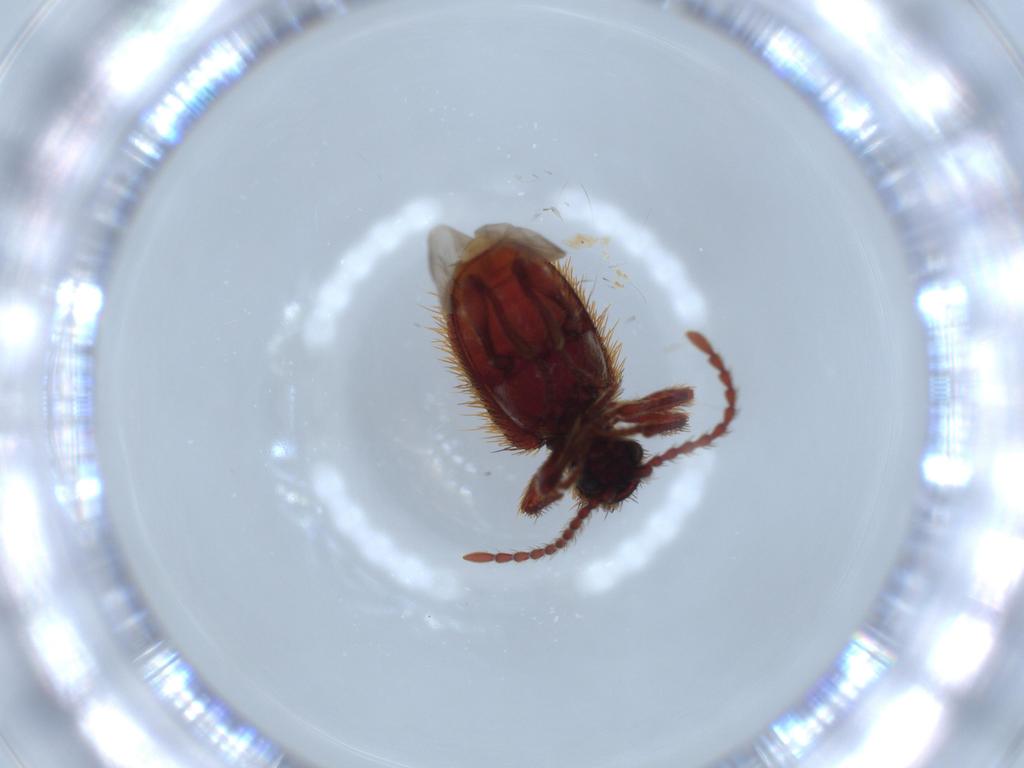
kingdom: Animalia
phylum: Arthropoda
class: Insecta
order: Coleoptera
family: Ptinidae
